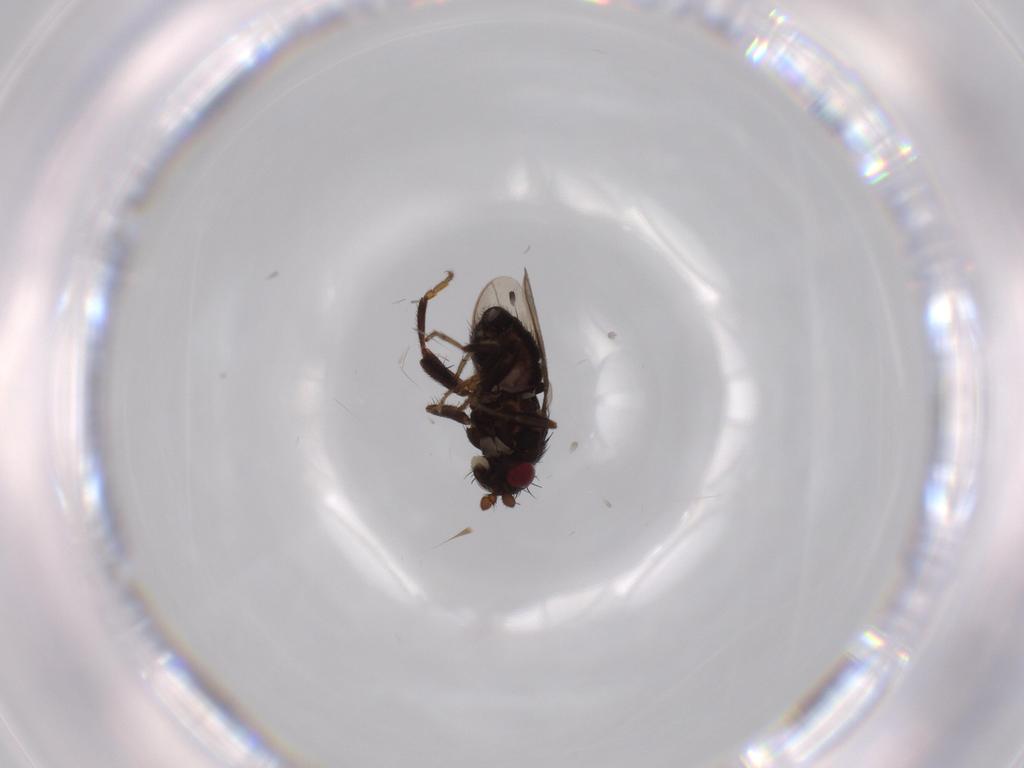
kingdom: Animalia
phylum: Arthropoda
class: Insecta
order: Diptera
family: Sphaeroceridae
